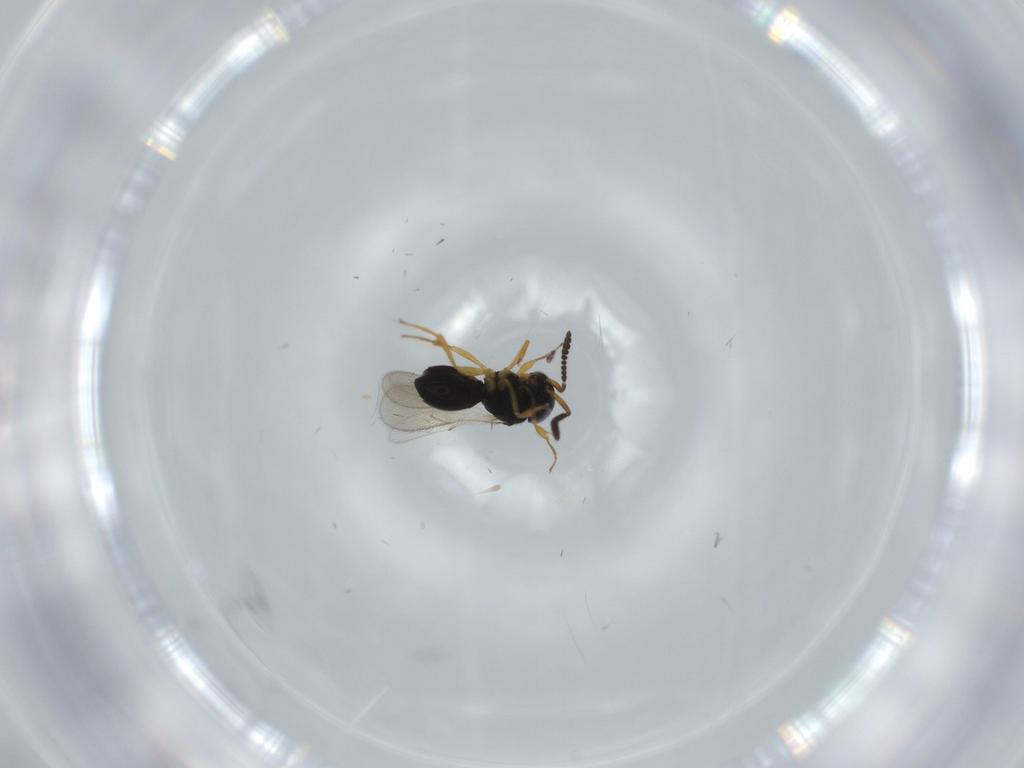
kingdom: Animalia
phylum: Arthropoda
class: Insecta
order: Hymenoptera
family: Scelionidae
